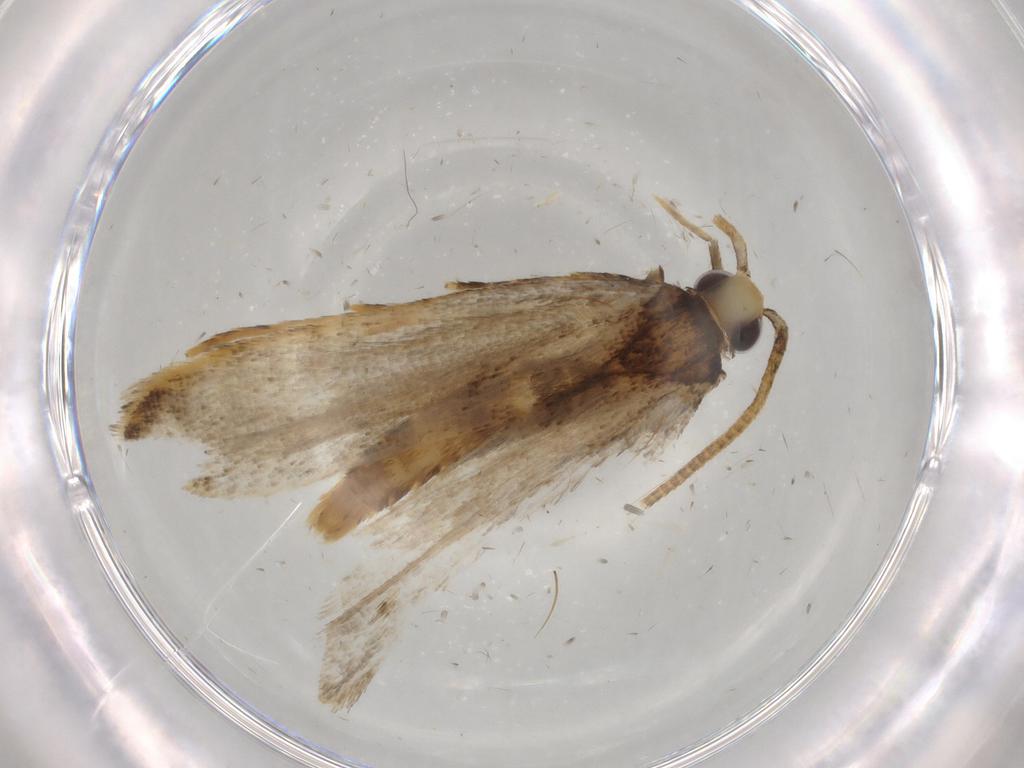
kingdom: Animalia
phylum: Arthropoda
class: Insecta
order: Lepidoptera
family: Autostichidae
